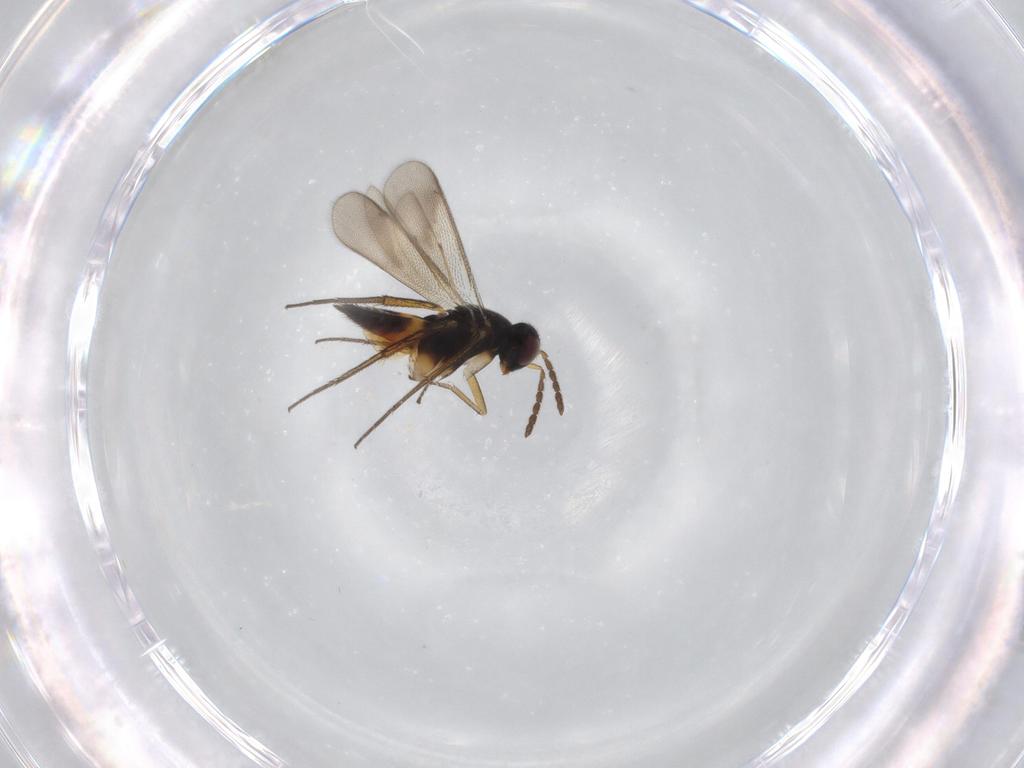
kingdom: Animalia
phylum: Arthropoda
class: Insecta
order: Hymenoptera
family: Eulophidae
